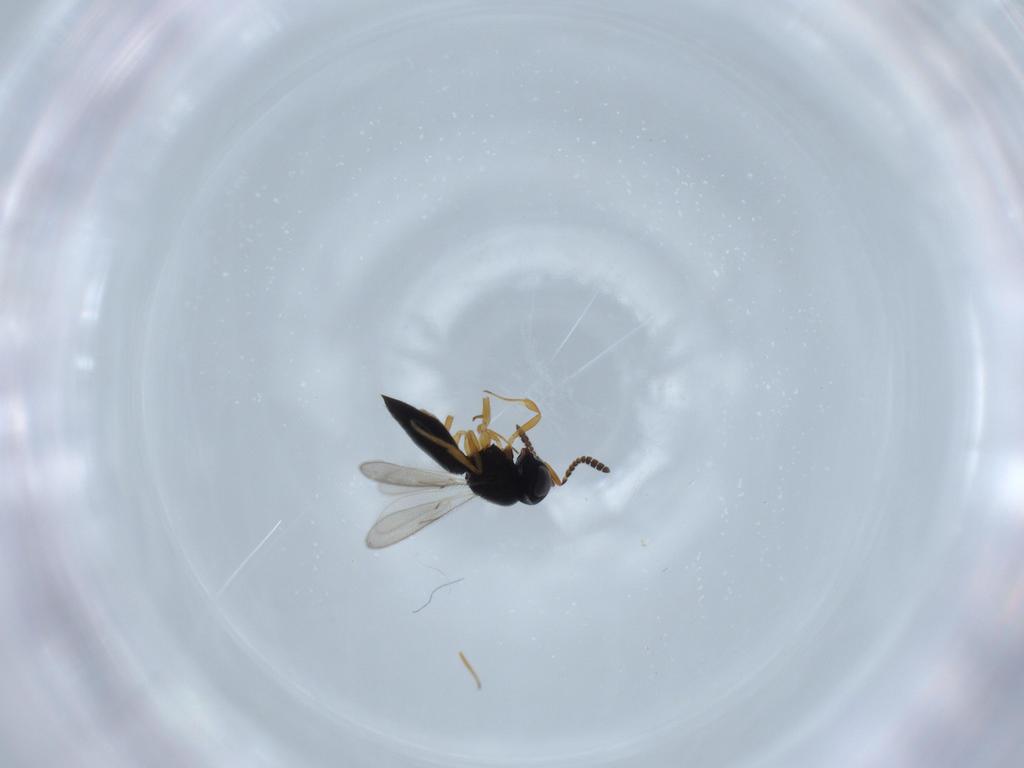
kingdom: Animalia
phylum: Arthropoda
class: Insecta
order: Hymenoptera
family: Scelionidae
